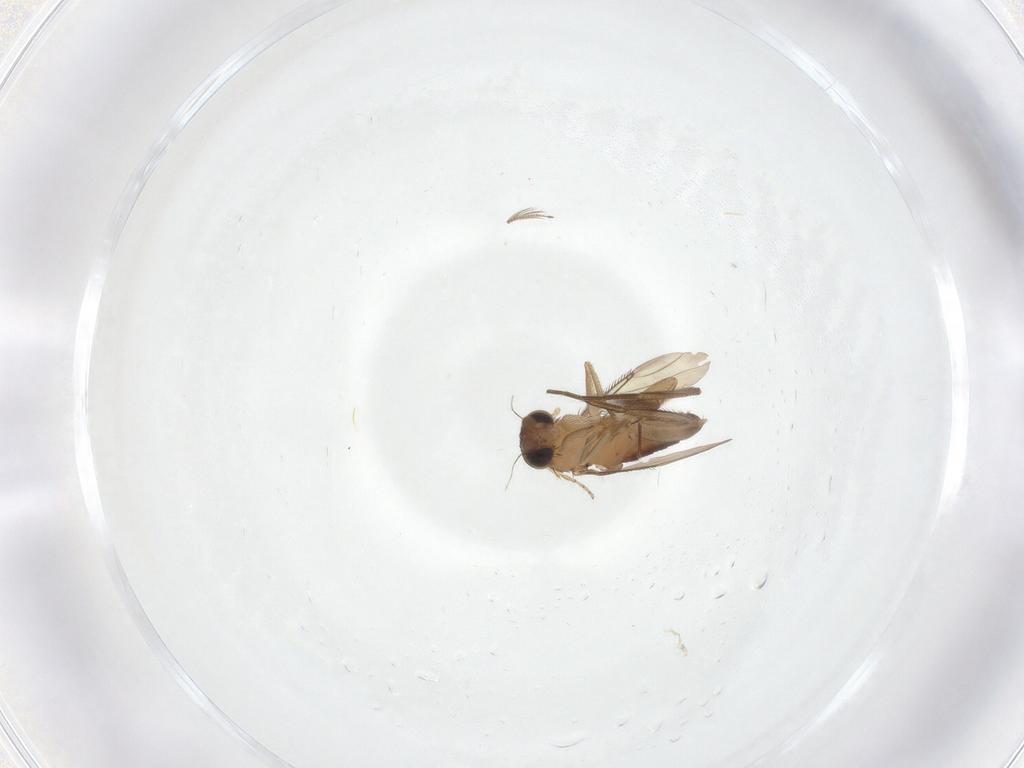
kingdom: Animalia
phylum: Arthropoda
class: Insecta
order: Diptera
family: Phoridae
